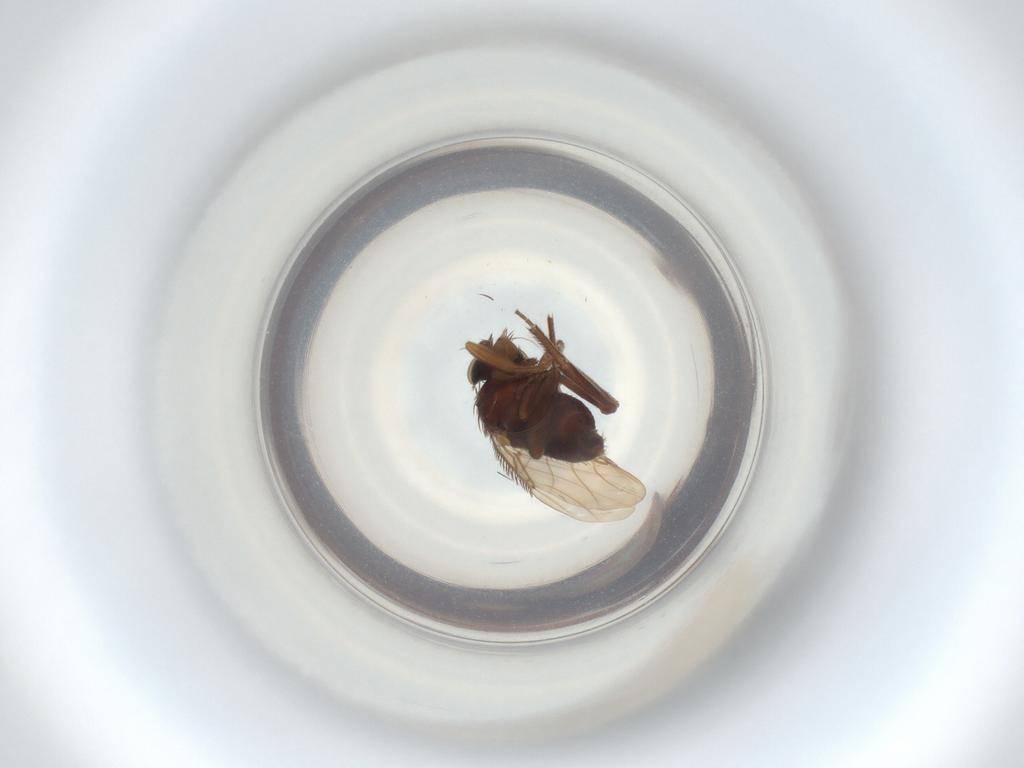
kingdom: Animalia
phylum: Arthropoda
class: Insecta
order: Diptera
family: Phoridae
